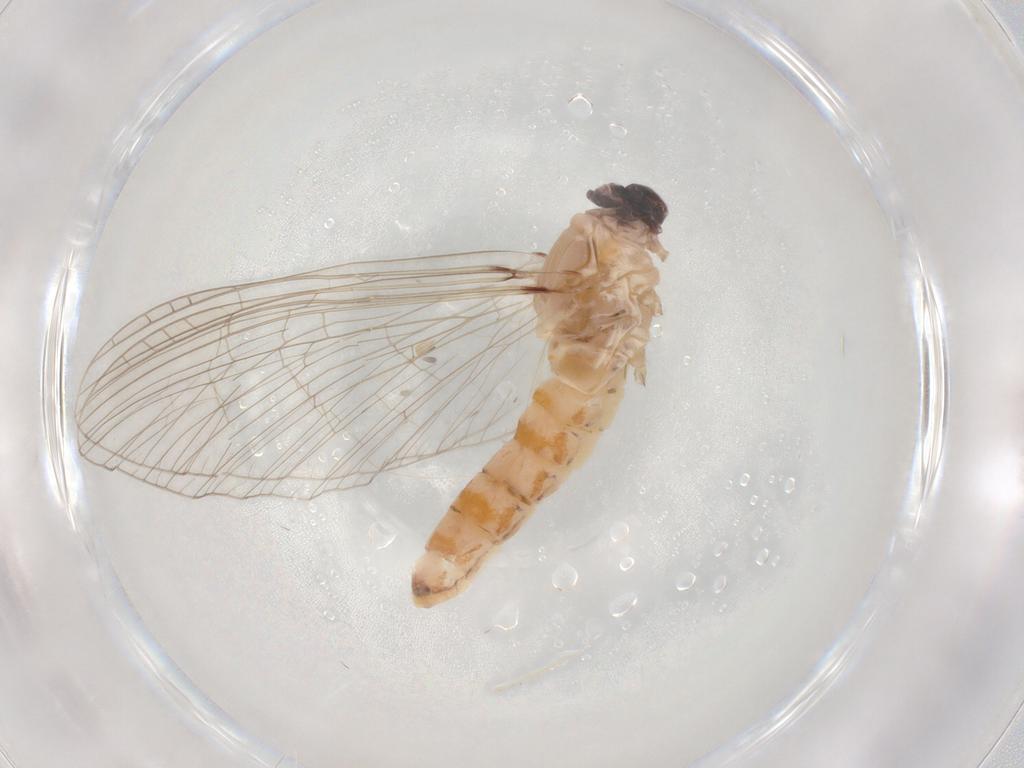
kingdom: Animalia
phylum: Arthropoda
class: Insecta
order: Ephemeroptera
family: Baetidae
